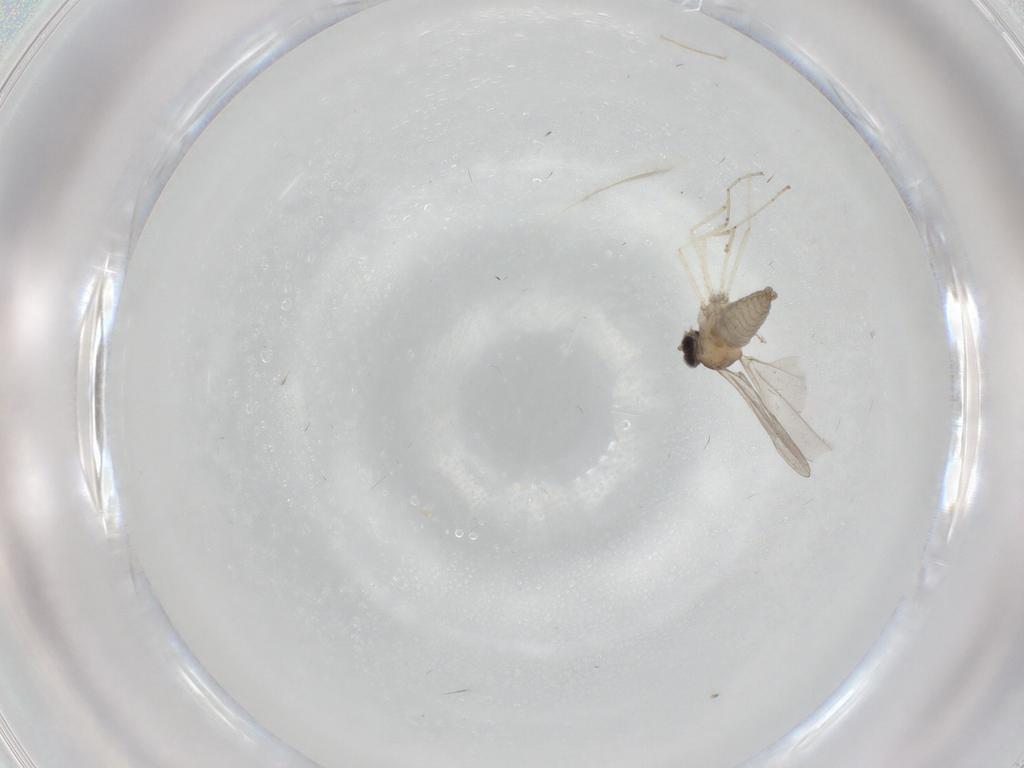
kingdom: Animalia
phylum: Arthropoda
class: Insecta
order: Diptera
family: Cecidomyiidae
